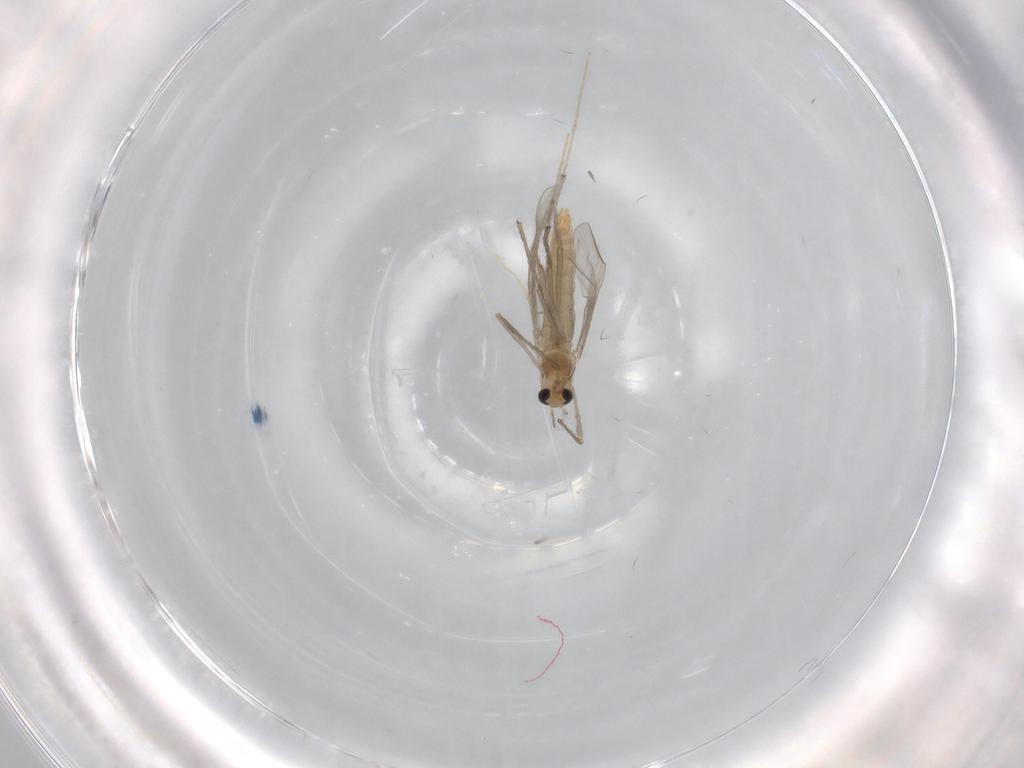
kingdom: Animalia
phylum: Arthropoda
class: Insecta
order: Diptera
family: Chironomidae
